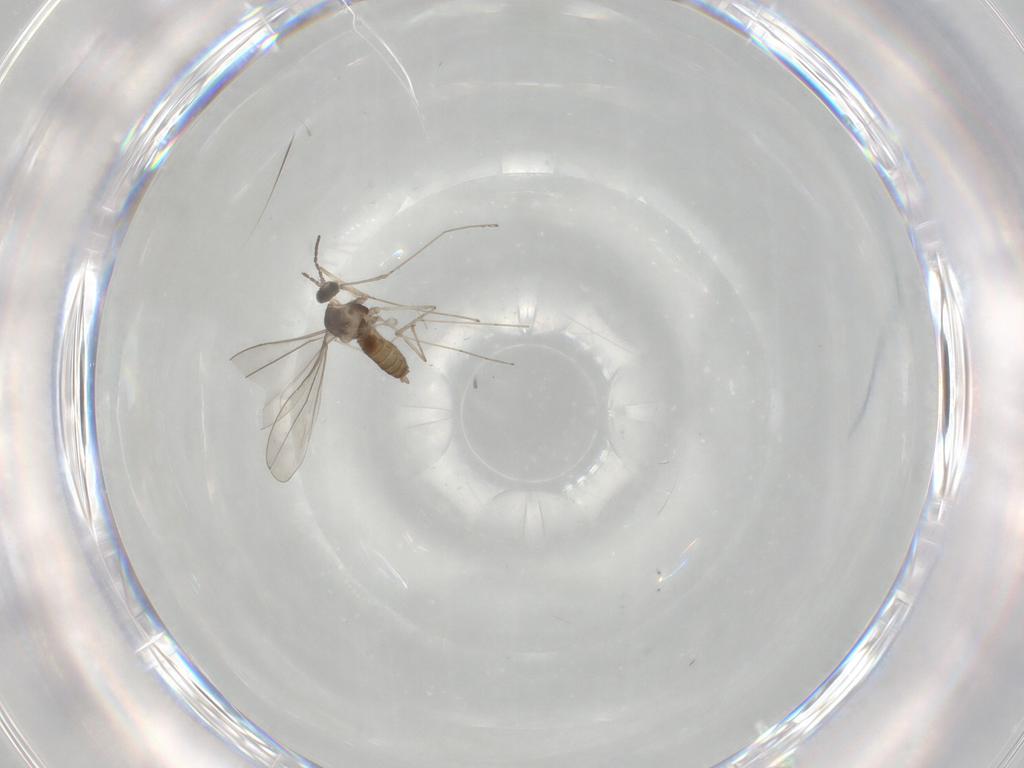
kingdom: Animalia
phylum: Arthropoda
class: Insecta
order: Diptera
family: Cecidomyiidae
